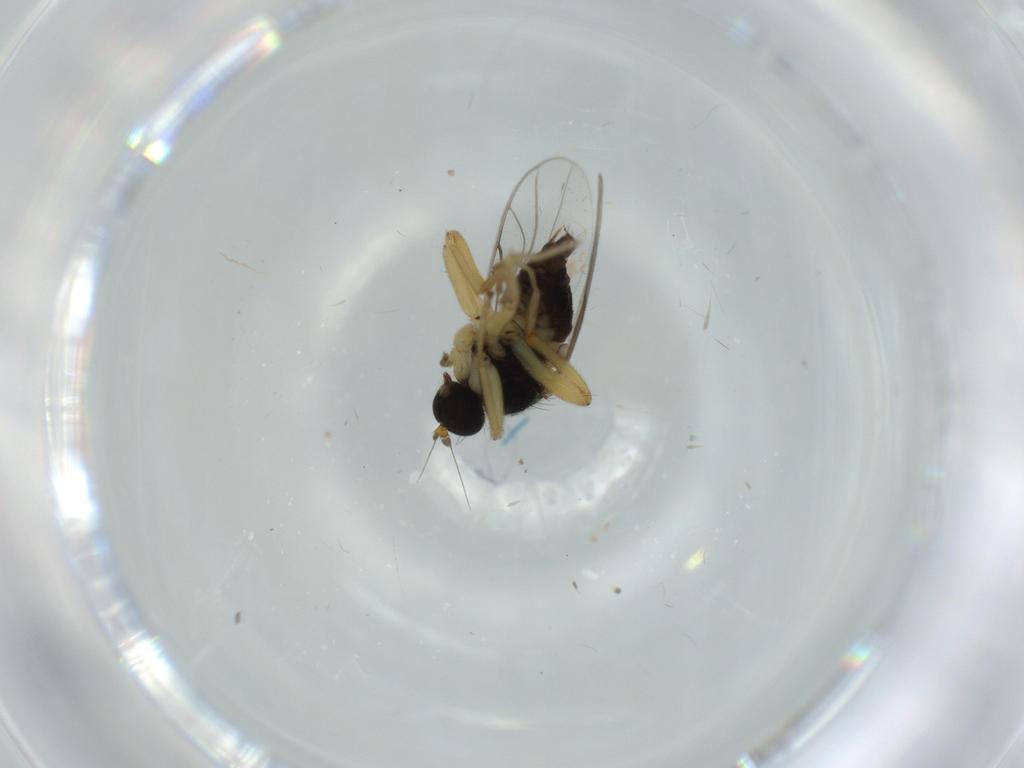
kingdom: Animalia
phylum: Arthropoda
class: Insecta
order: Diptera
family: Hybotidae
